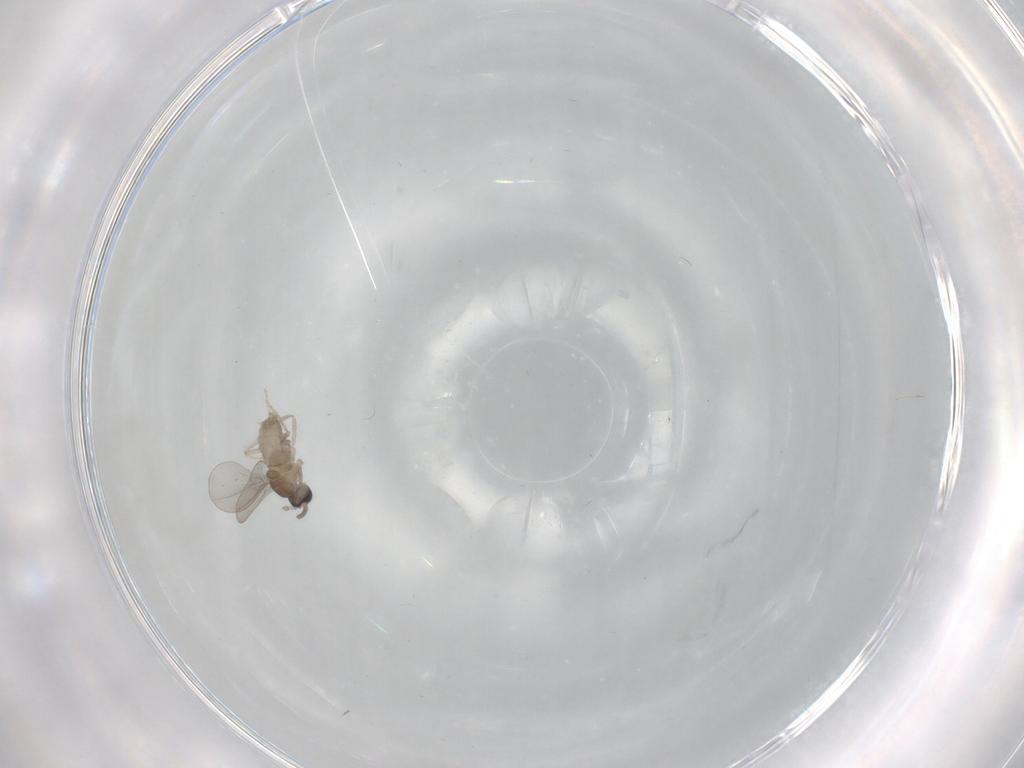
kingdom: Animalia
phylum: Arthropoda
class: Insecta
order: Diptera
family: Cecidomyiidae
